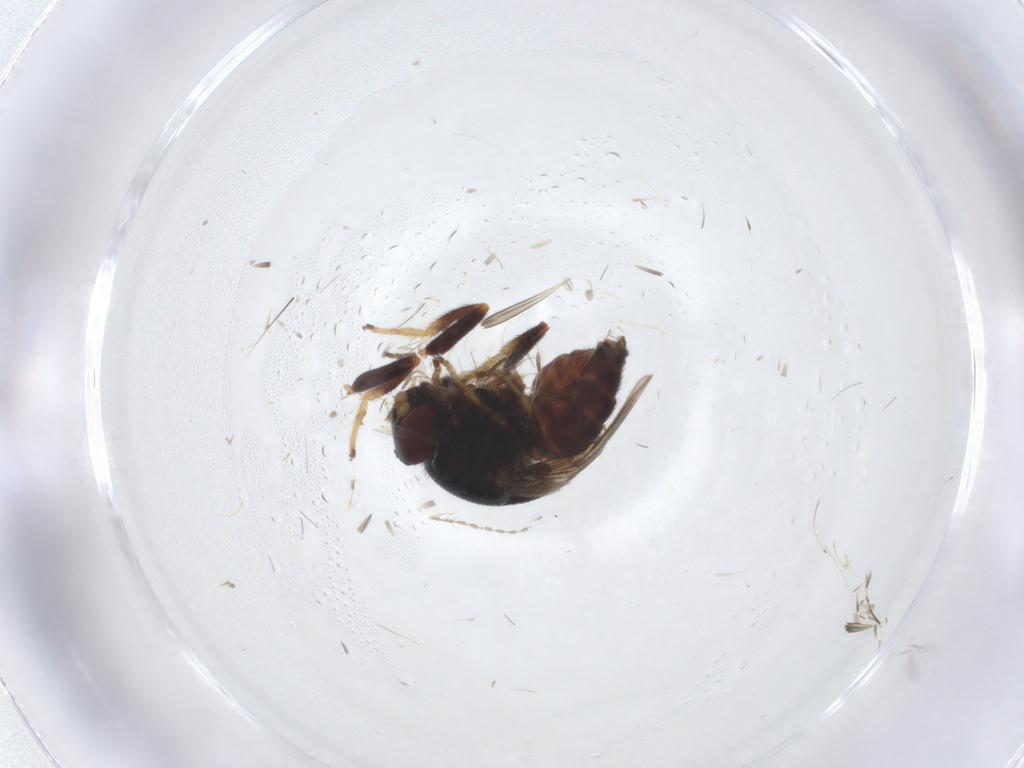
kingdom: Animalia
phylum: Arthropoda
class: Insecta
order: Diptera
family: Chloropidae
